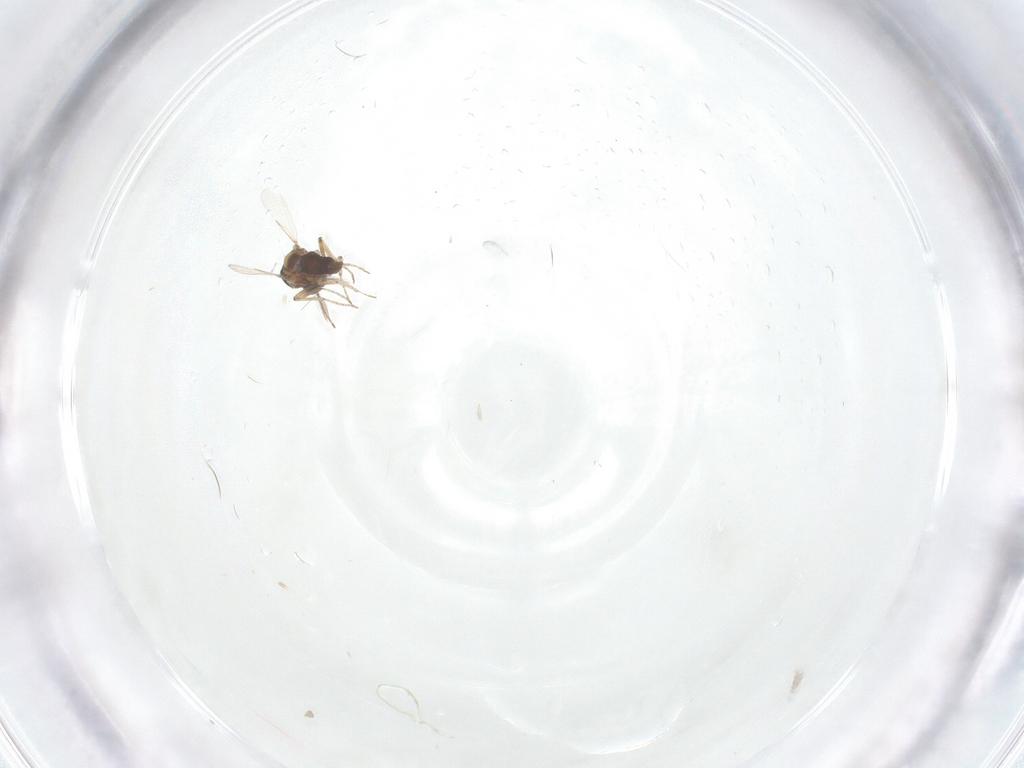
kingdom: Animalia
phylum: Arthropoda
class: Insecta
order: Diptera
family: Ceratopogonidae
